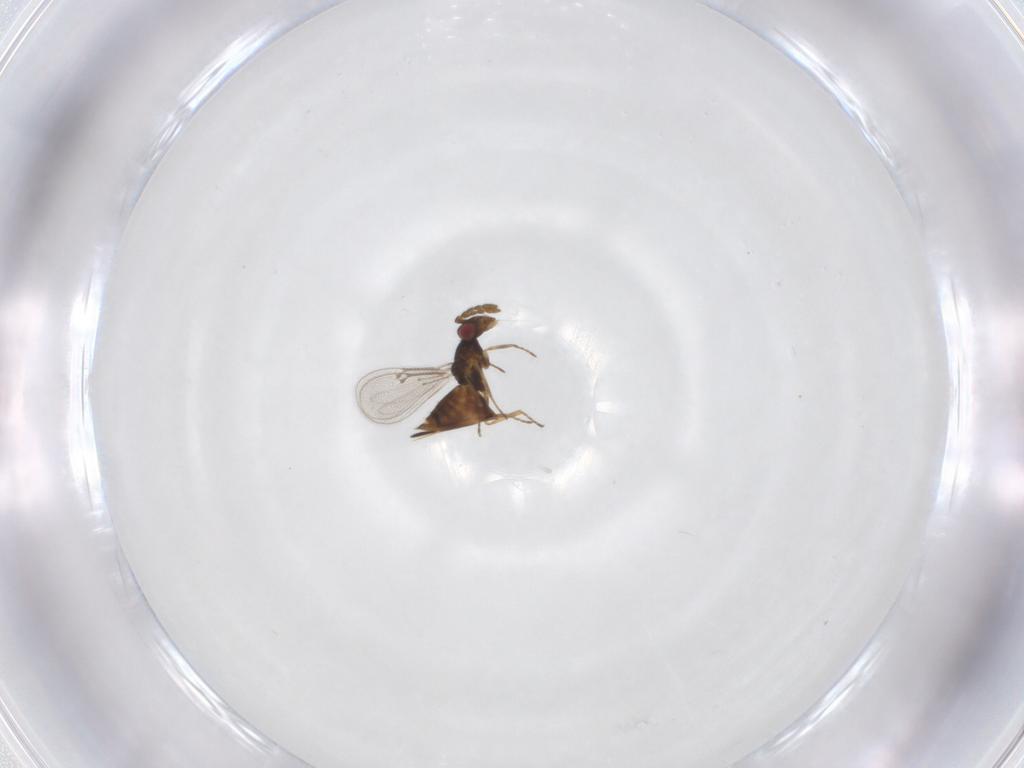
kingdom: Animalia
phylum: Arthropoda
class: Insecta
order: Hymenoptera
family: Eulophidae
